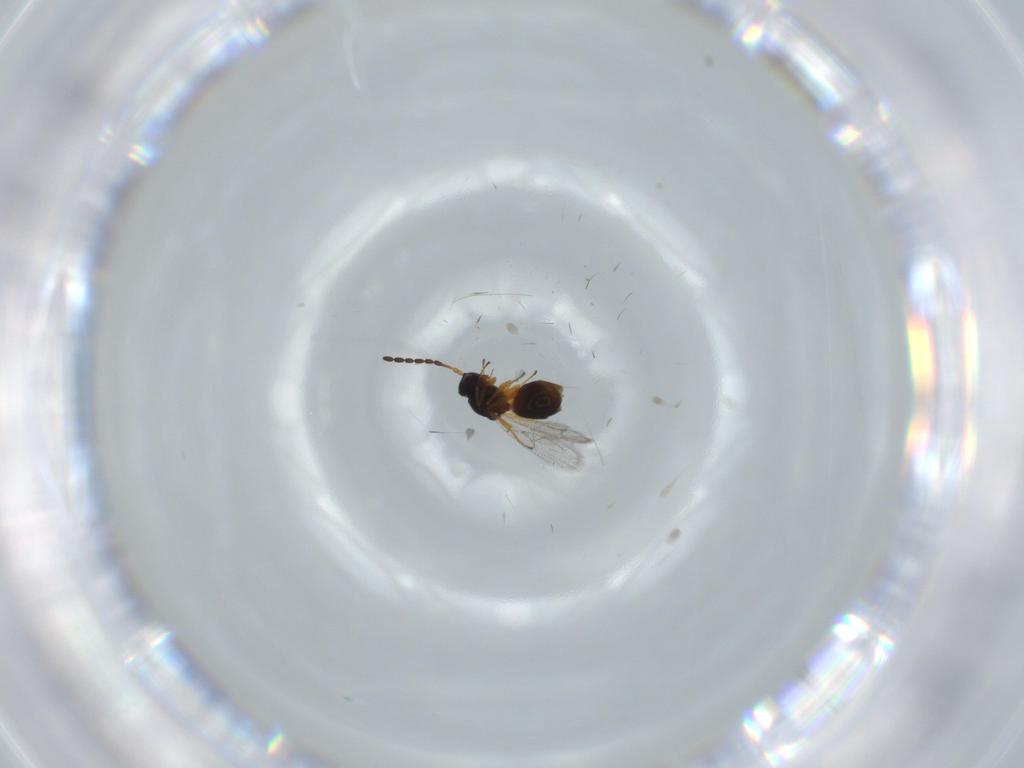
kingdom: Animalia
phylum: Arthropoda
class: Insecta
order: Hymenoptera
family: Figitidae
